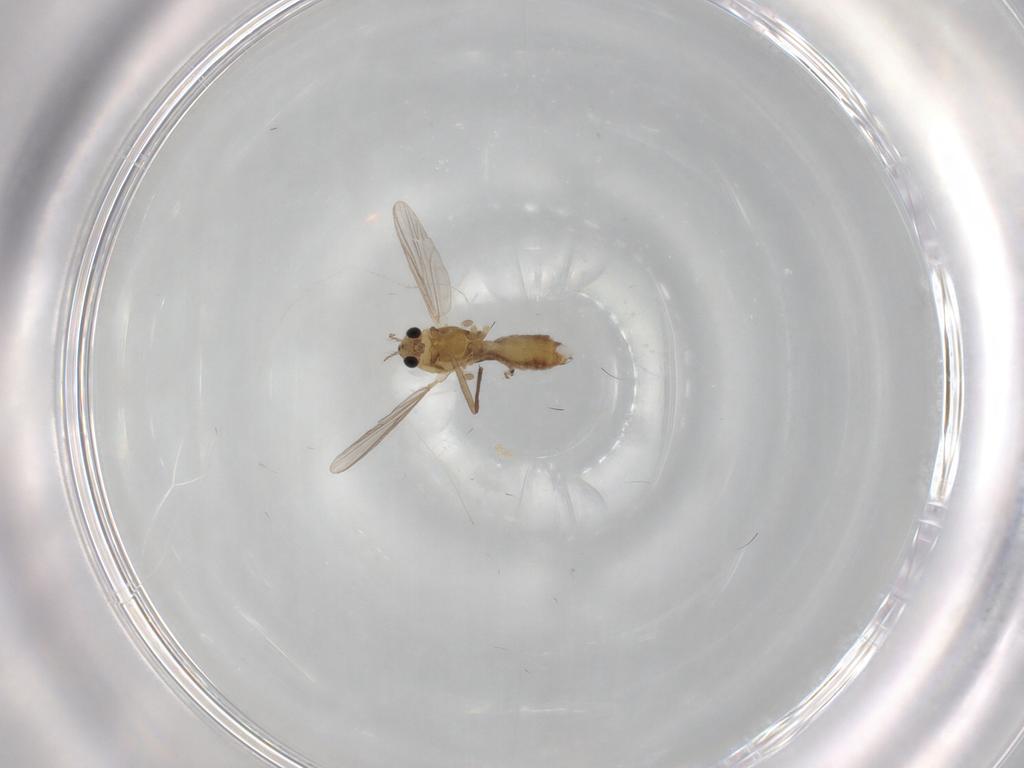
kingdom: Animalia
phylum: Arthropoda
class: Insecta
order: Diptera
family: Chironomidae
